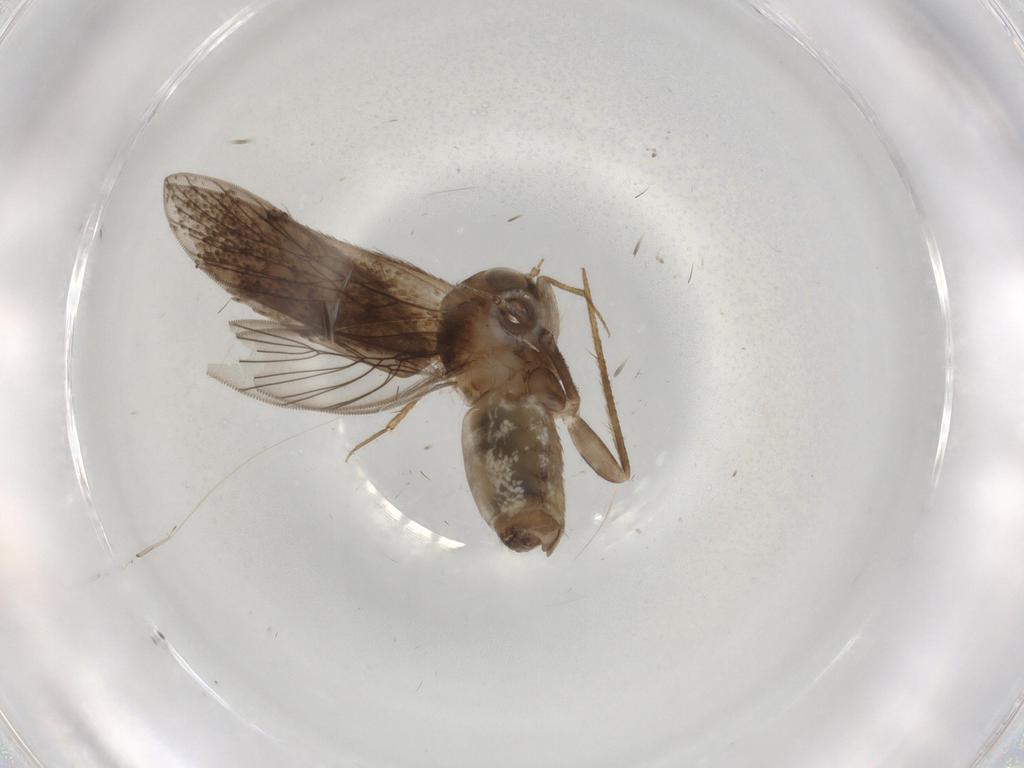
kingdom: Animalia
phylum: Arthropoda
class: Insecta
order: Psocodea
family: Lepidopsocidae
